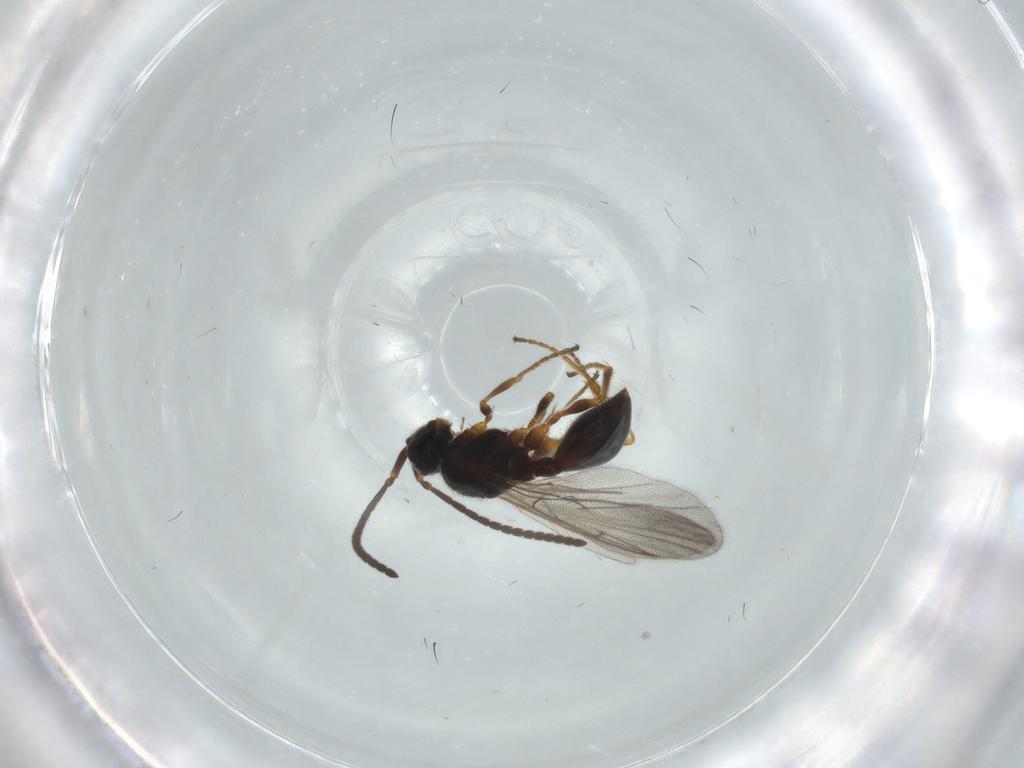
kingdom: Animalia
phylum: Arthropoda
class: Insecta
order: Hymenoptera
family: Diapriidae
